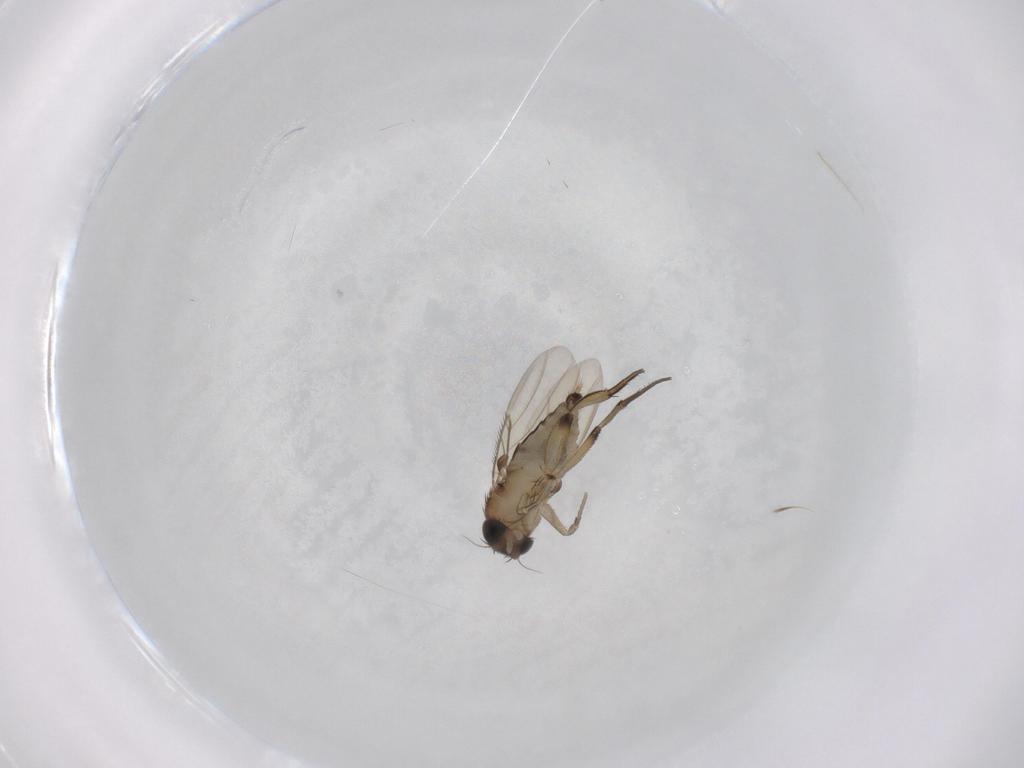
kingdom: Animalia
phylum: Arthropoda
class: Insecta
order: Diptera
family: Phoridae
